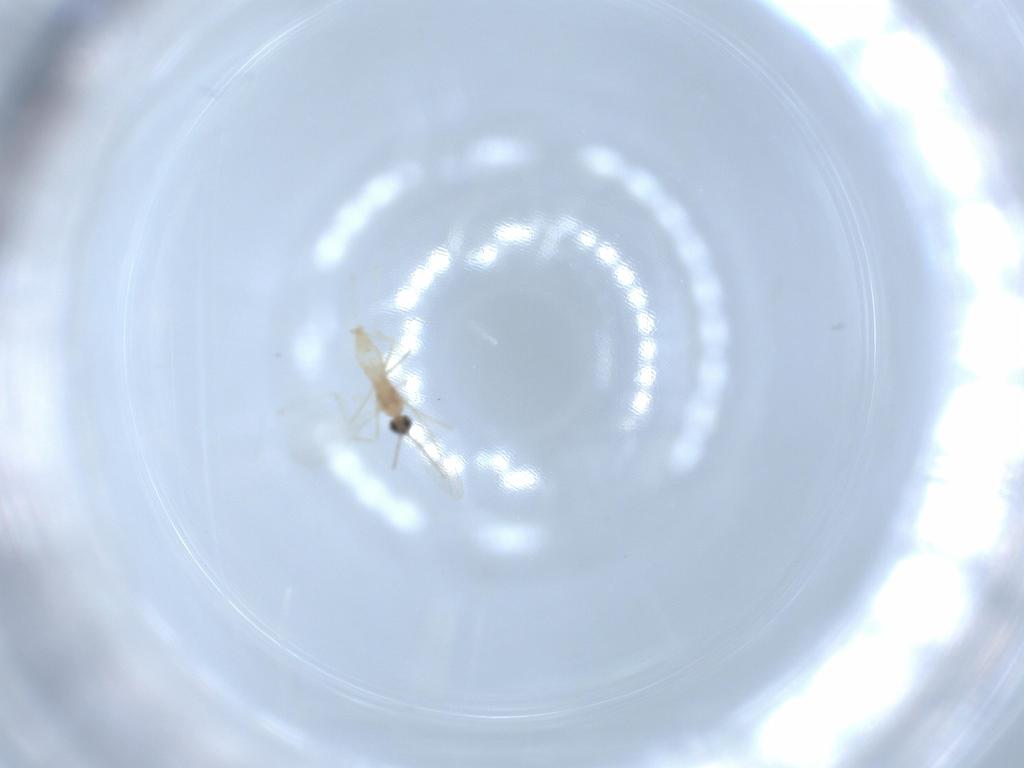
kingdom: Animalia
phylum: Arthropoda
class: Insecta
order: Diptera
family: Cecidomyiidae
